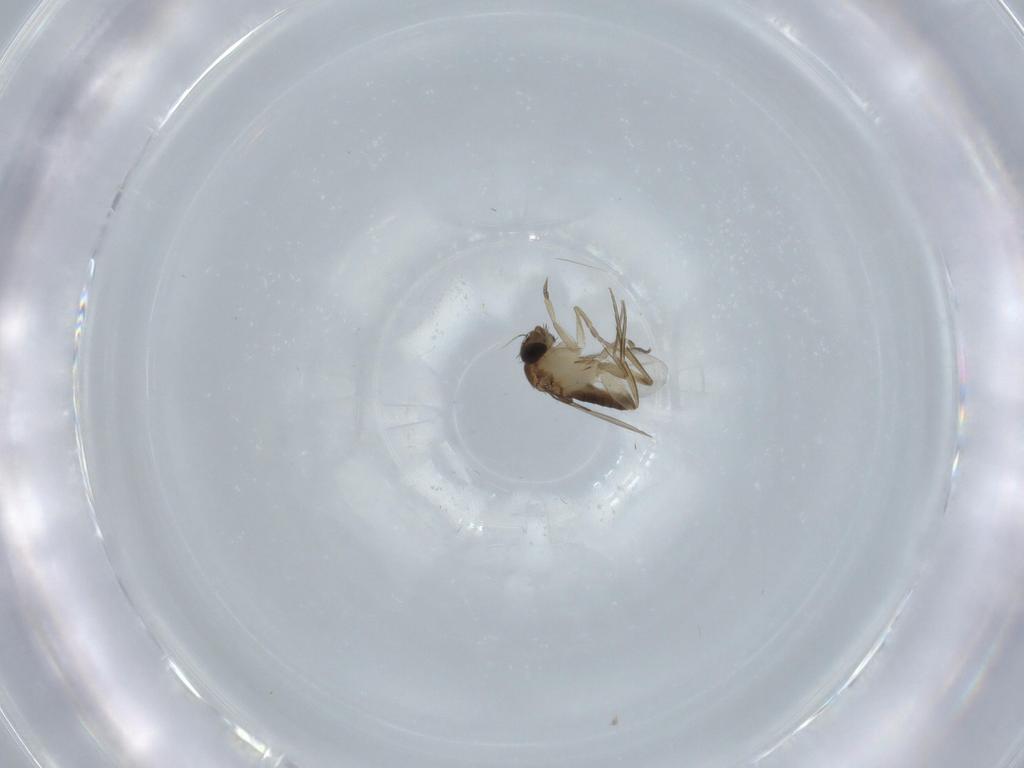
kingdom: Animalia
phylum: Arthropoda
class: Insecta
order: Diptera
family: Phoridae
